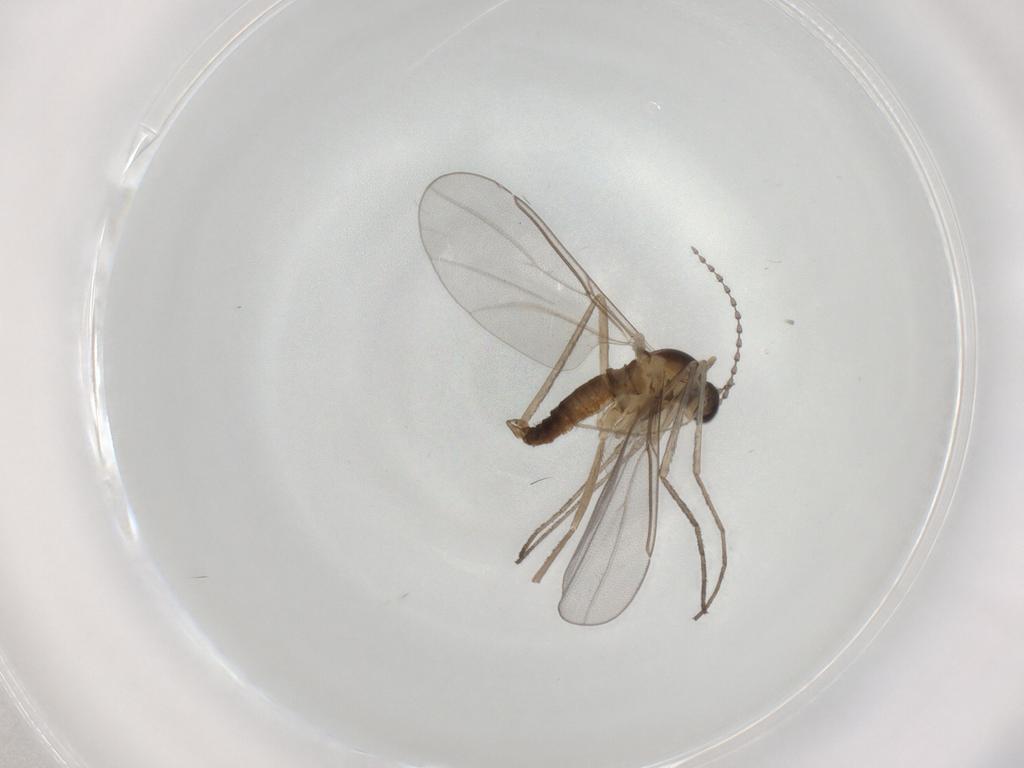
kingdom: Animalia
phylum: Arthropoda
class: Insecta
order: Diptera
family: Cecidomyiidae
